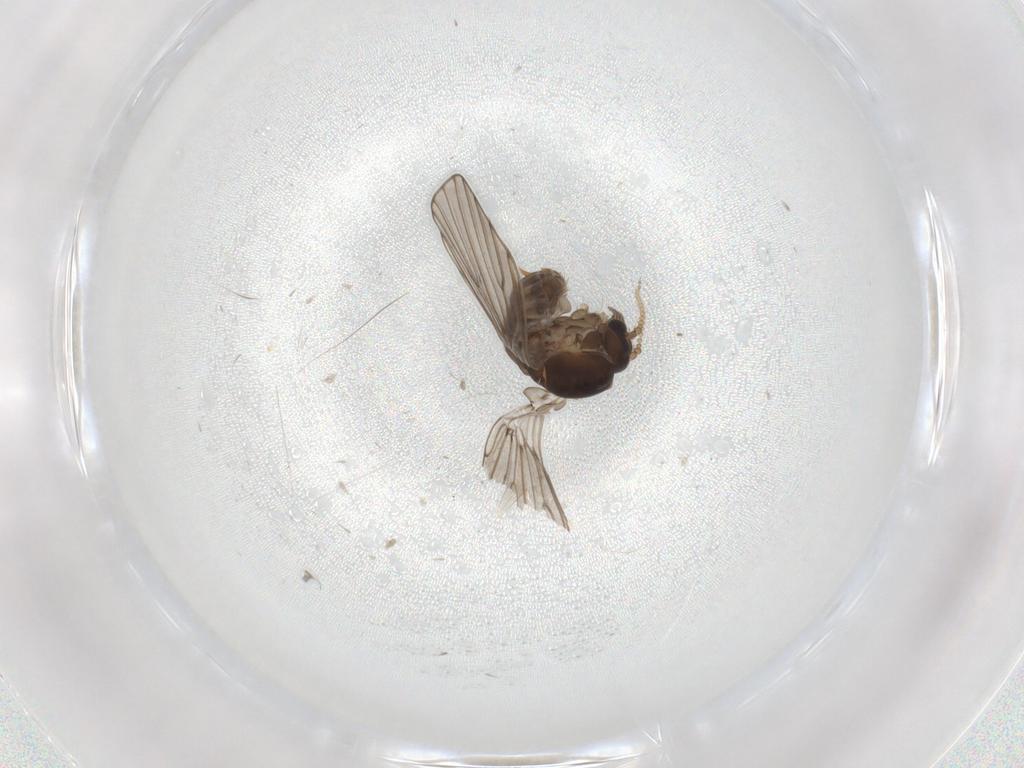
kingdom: Animalia
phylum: Arthropoda
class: Insecta
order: Diptera
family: Psychodidae
